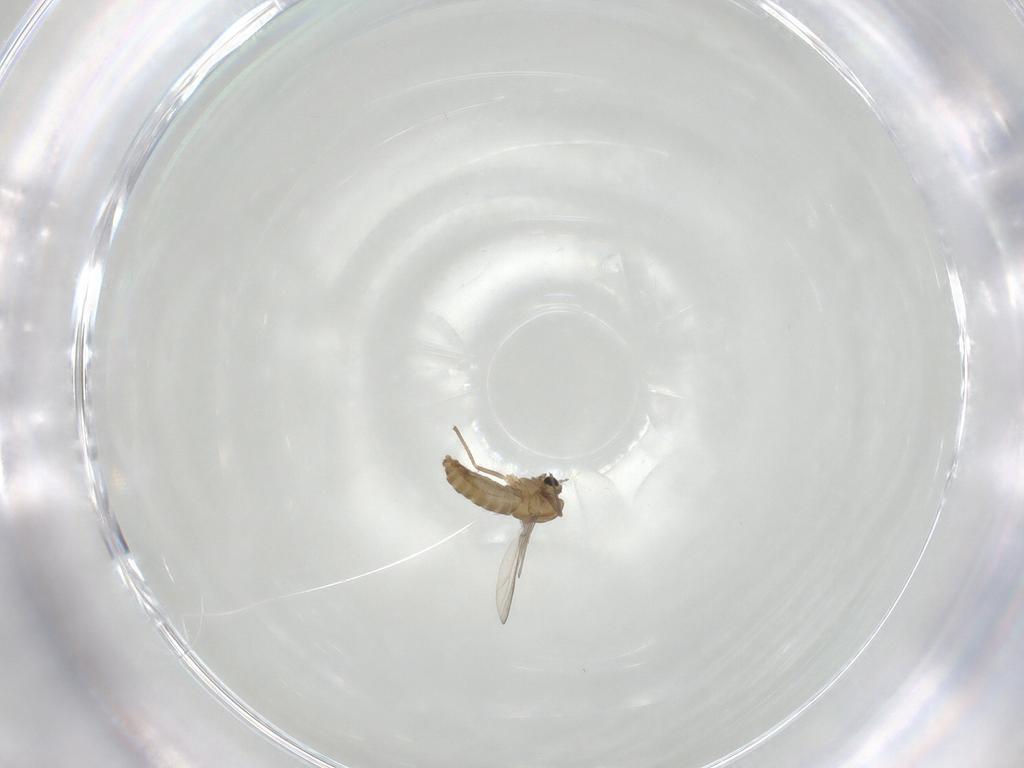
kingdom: Animalia
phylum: Arthropoda
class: Insecta
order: Diptera
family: Chironomidae
